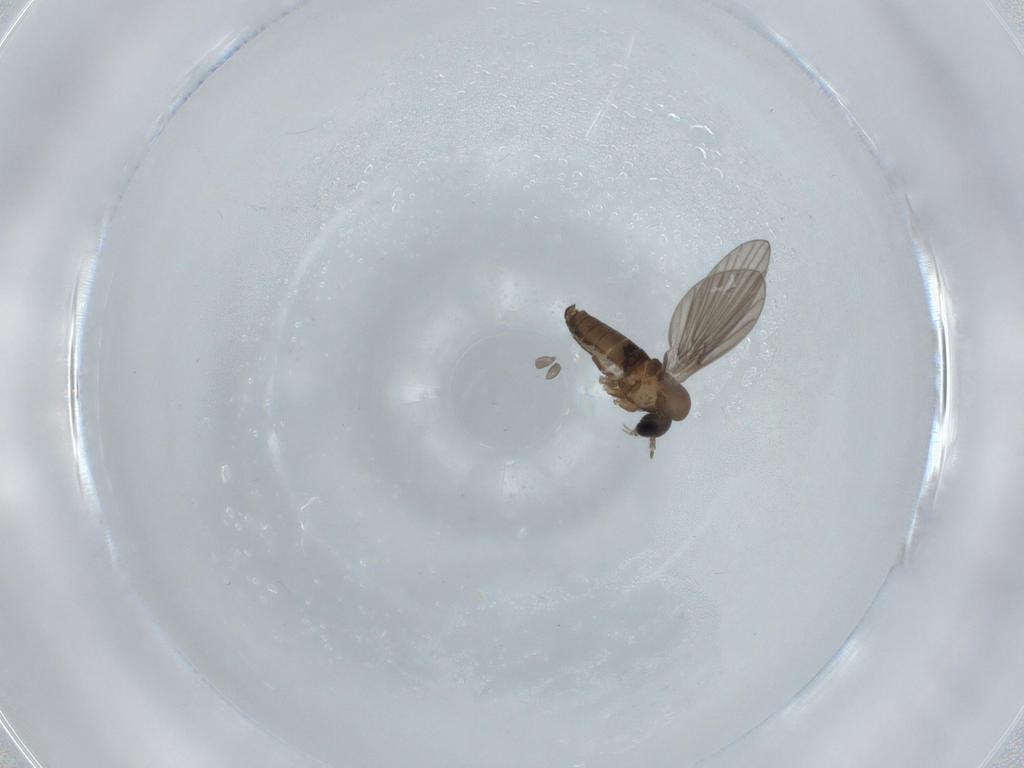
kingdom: Animalia
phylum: Arthropoda
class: Insecta
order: Diptera
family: Psychodidae
